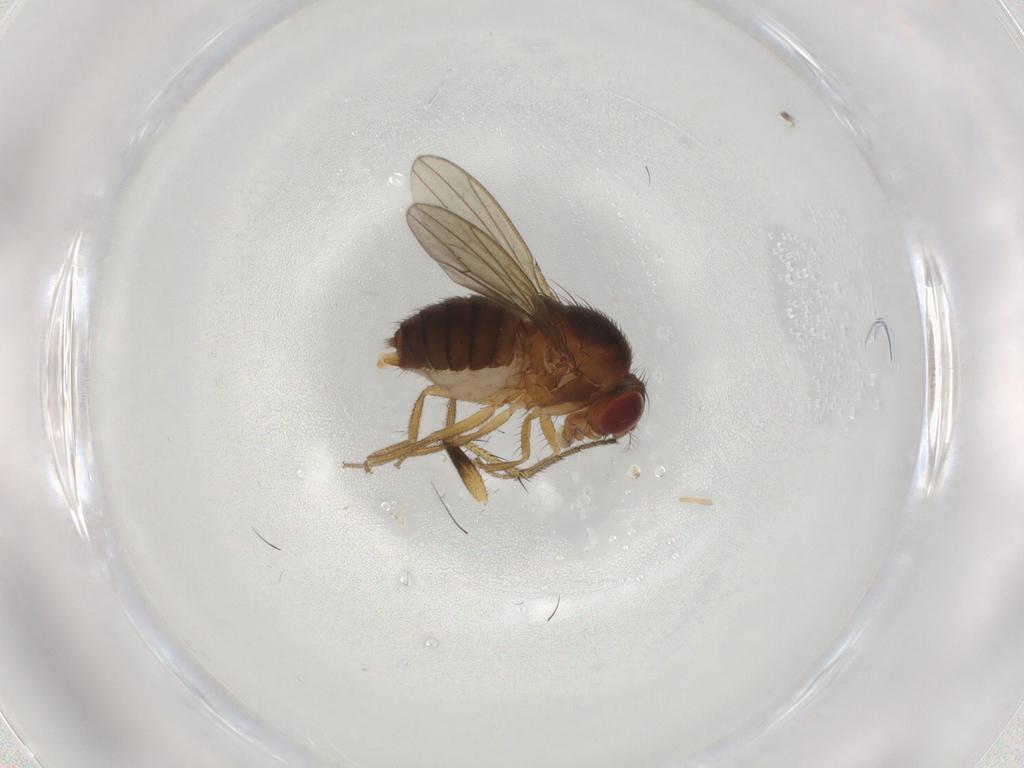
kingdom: Animalia
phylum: Arthropoda
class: Insecta
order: Diptera
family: Drosophilidae
